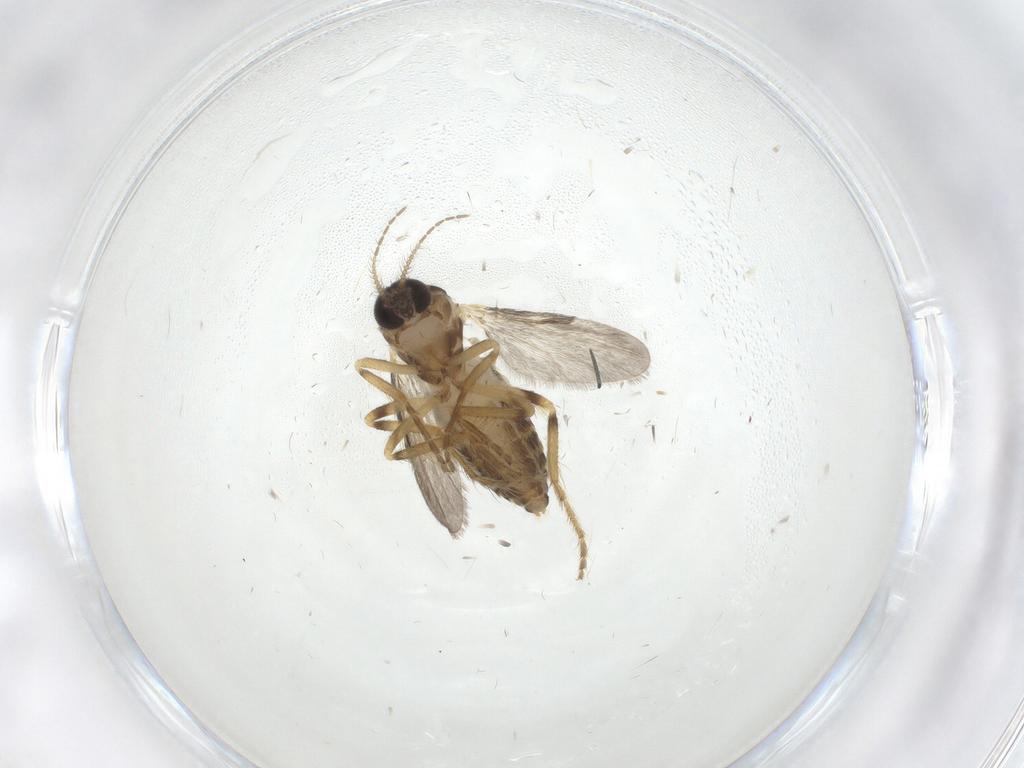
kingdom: Animalia
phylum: Arthropoda
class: Insecta
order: Diptera
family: Ceratopogonidae
